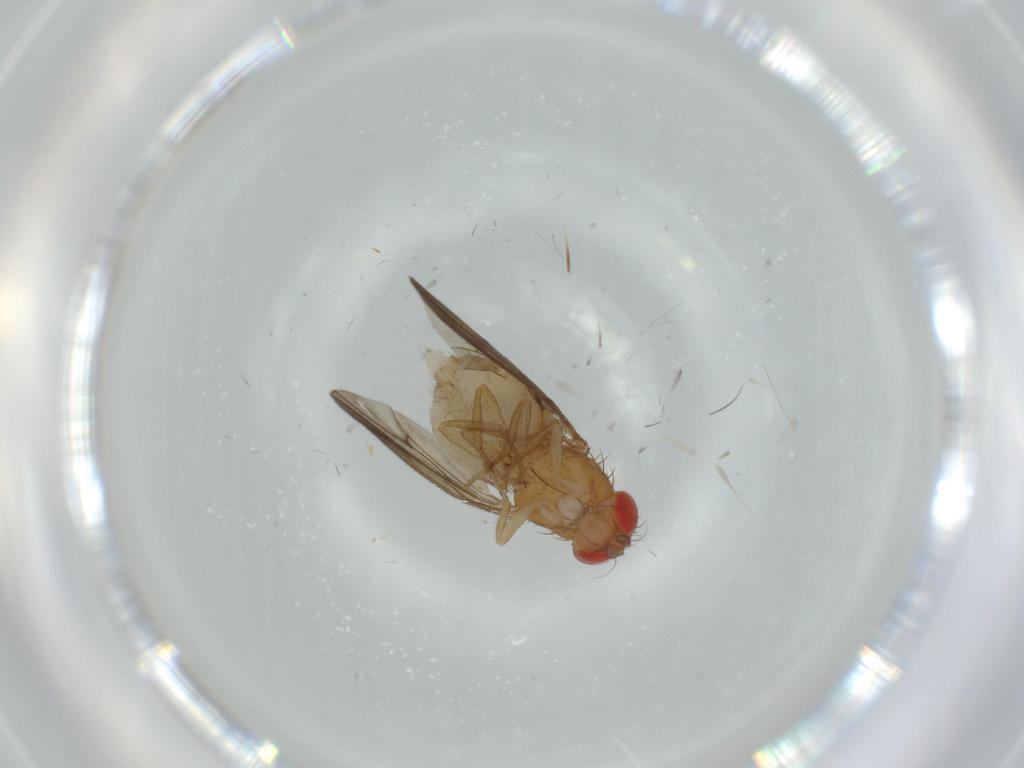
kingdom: Animalia
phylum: Arthropoda
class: Insecta
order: Diptera
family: Drosophilidae
